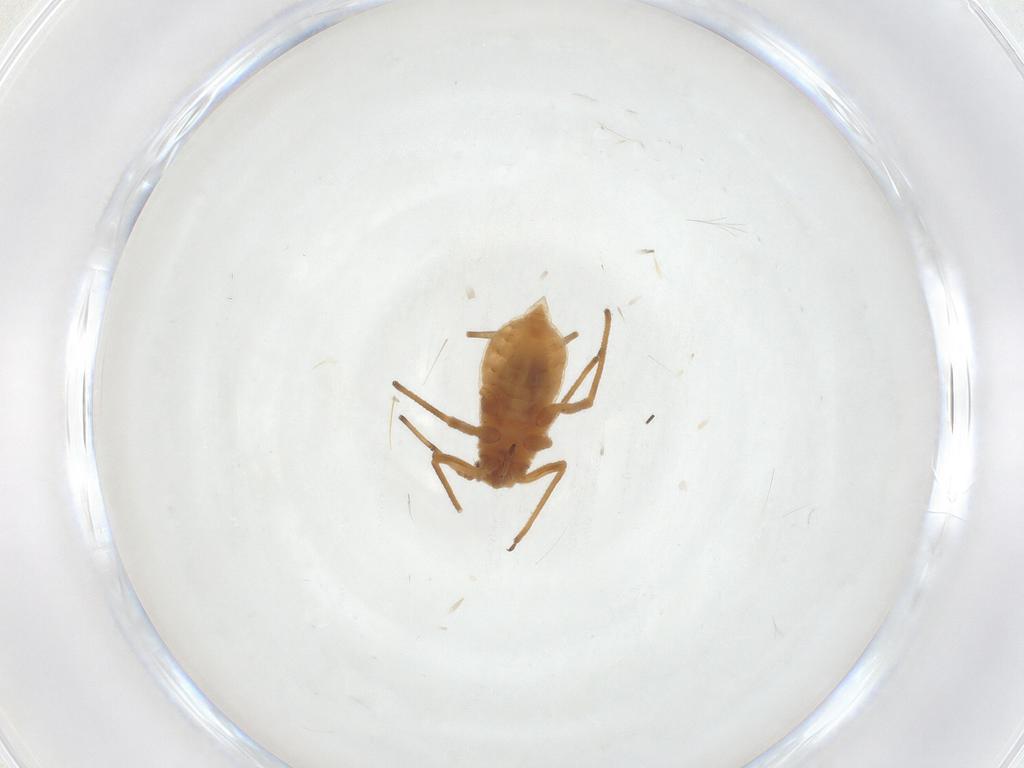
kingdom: Animalia
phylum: Arthropoda
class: Insecta
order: Hemiptera
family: Aphididae
